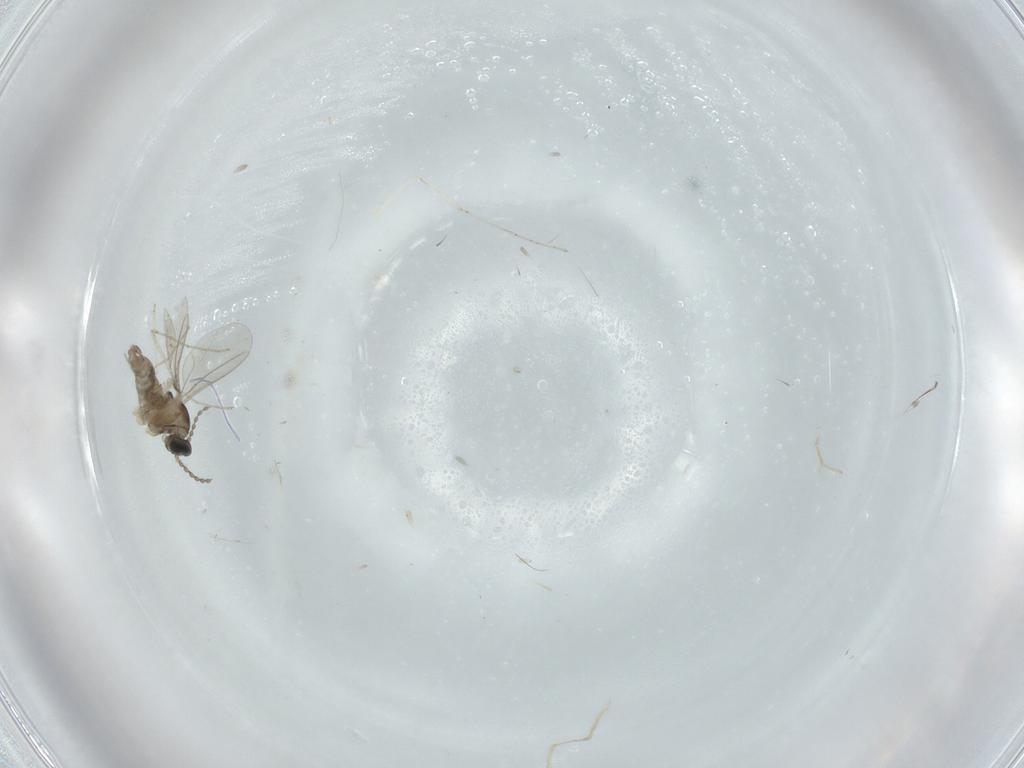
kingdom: Animalia
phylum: Arthropoda
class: Insecta
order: Diptera
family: Cecidomyiidae
